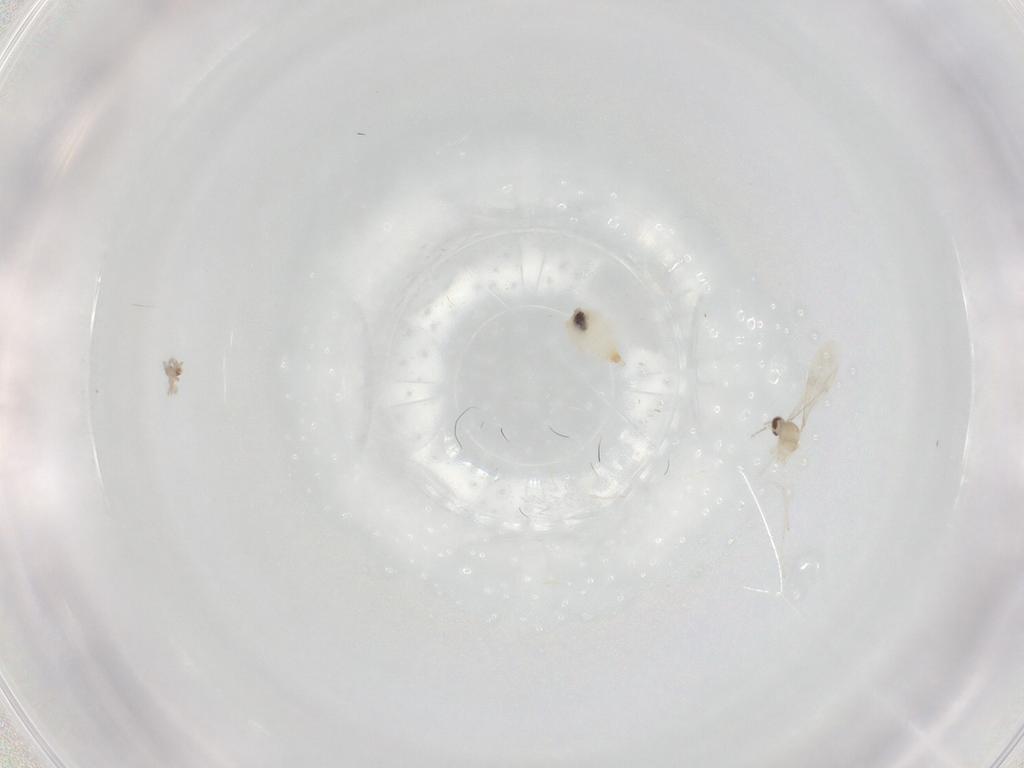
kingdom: Animalia
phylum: Arthropoda
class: Insecta
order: Diptera
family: Cecidomyiidae
